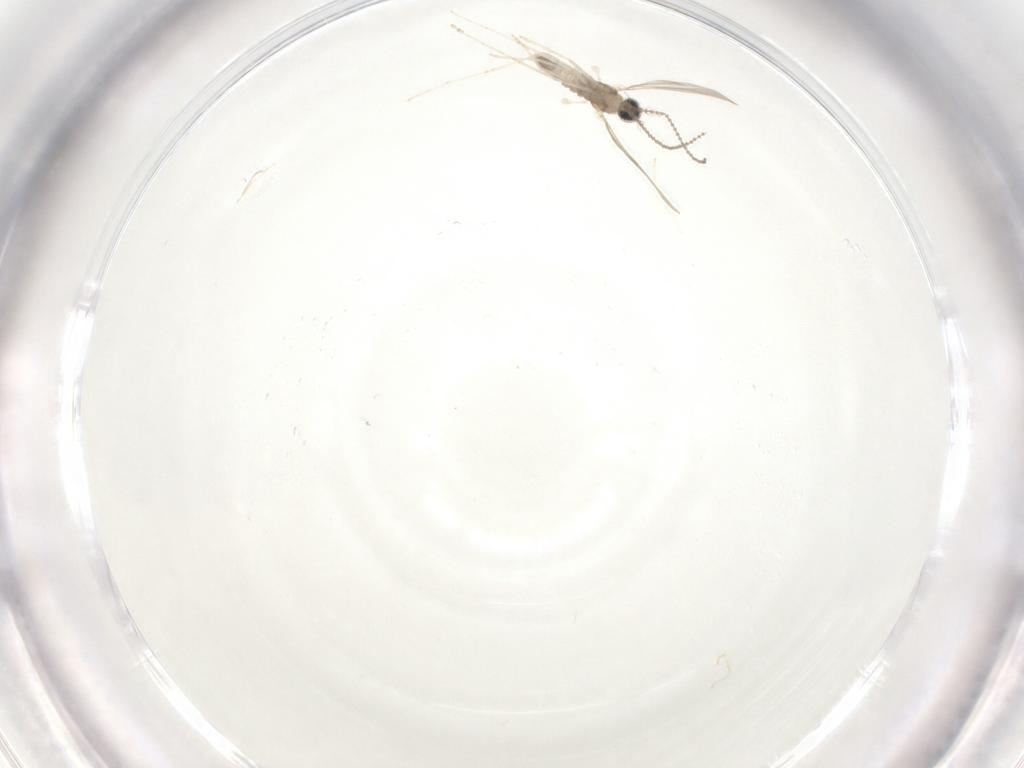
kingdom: Animalia
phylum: Arthropoda
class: Insecta
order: Diptera
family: Cecidomyiidae
